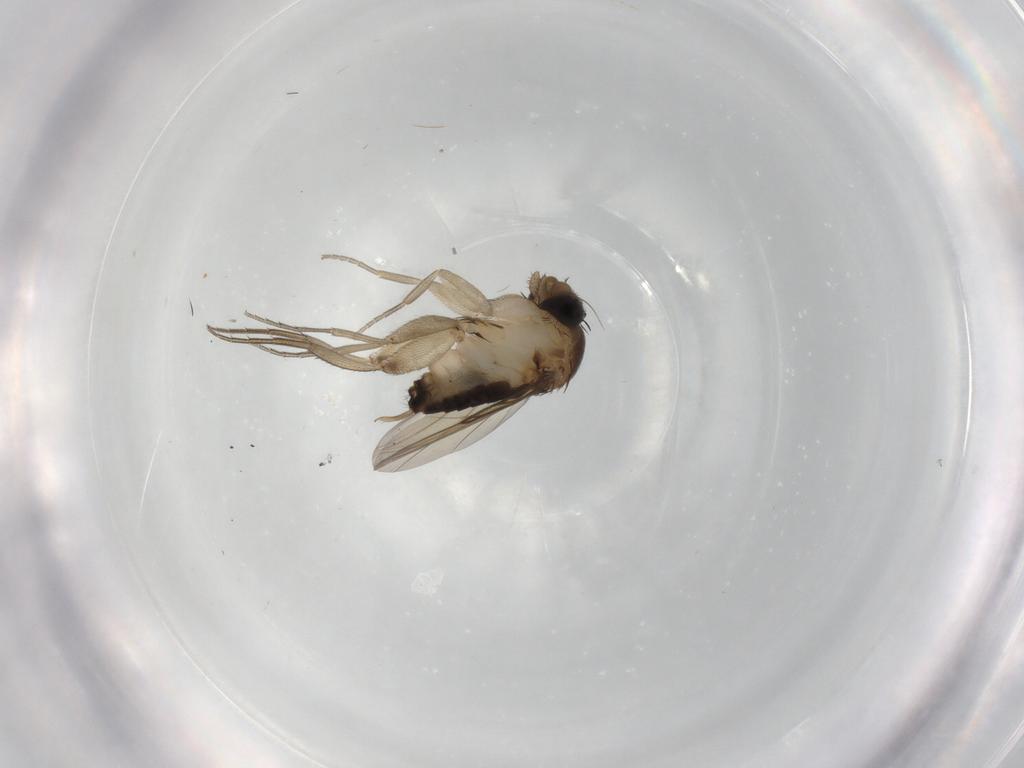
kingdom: Animalia
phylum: Arthropoda
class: Insecta
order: Diptera
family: Phoridae
